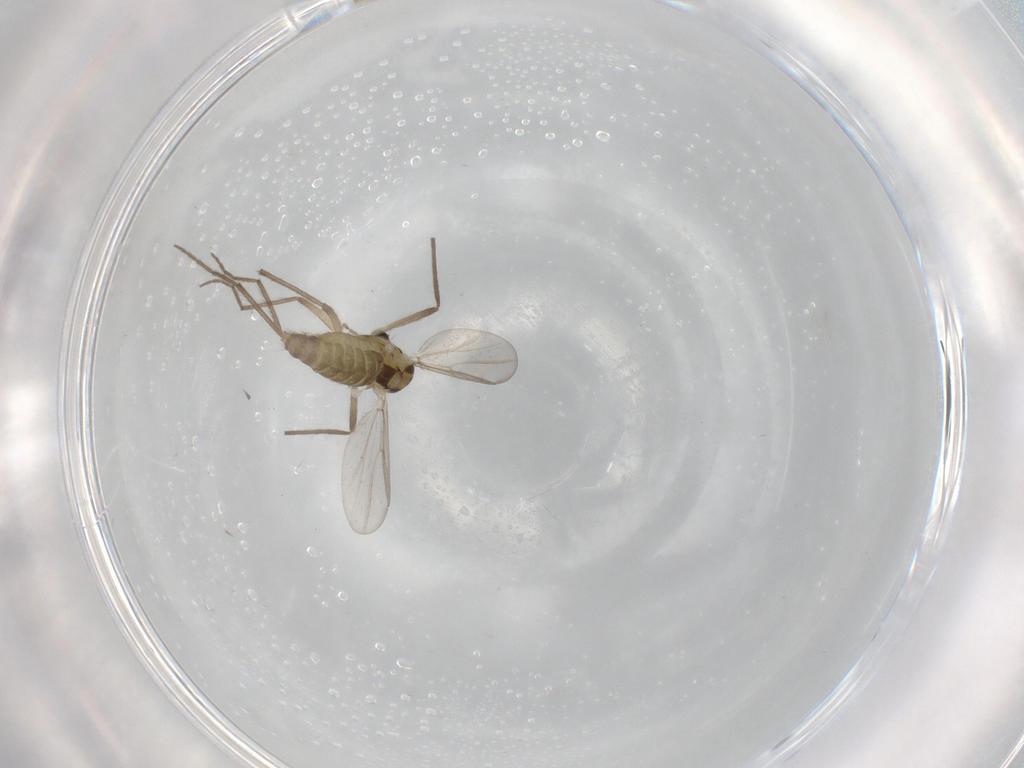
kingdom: Animalia
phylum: Arthropoda
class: Insecta
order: Diptera
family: Chironomidae
